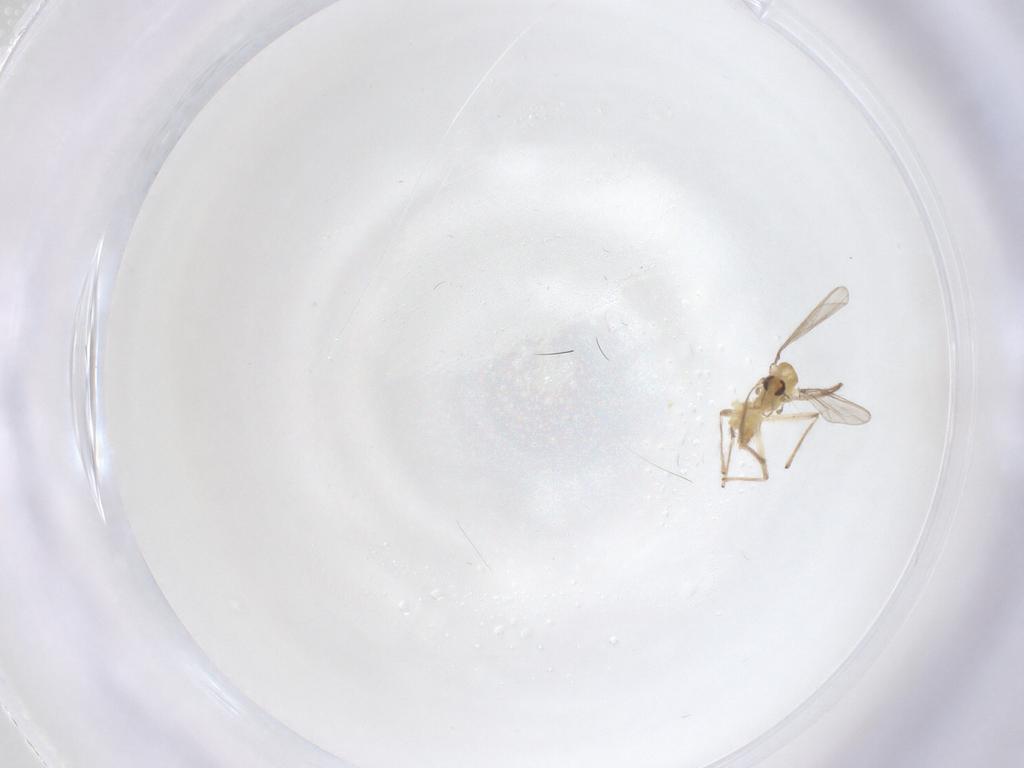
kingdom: Animalia
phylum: Arthropoda
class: Insecta
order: Diptera
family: Chironomidae
